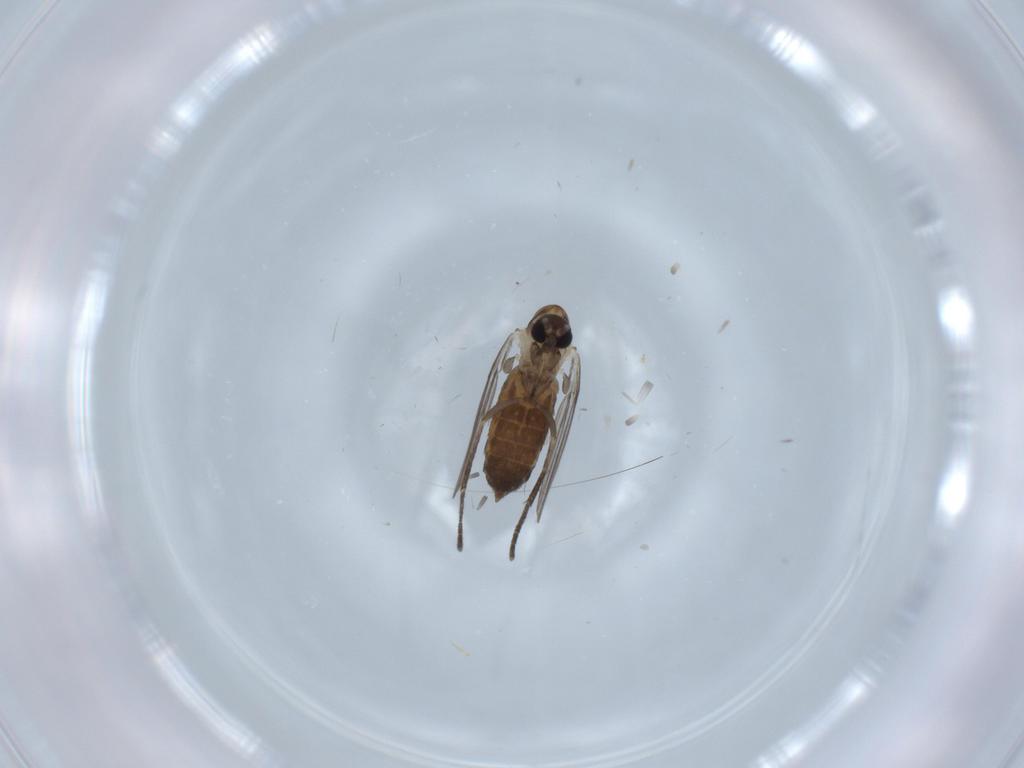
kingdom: Animalia
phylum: Arthropoda
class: Insecta
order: Diptera
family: Psychodidae
